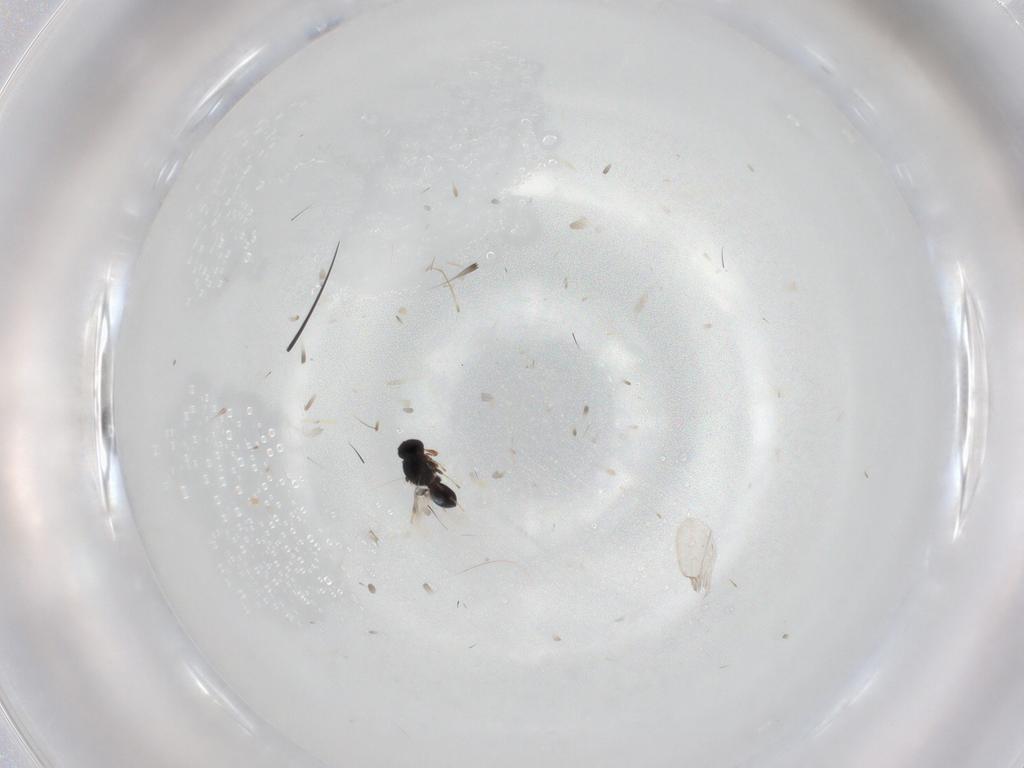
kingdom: Animalia
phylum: Arthropoda
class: Insecta
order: Hymenoptera
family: Platygastridae
